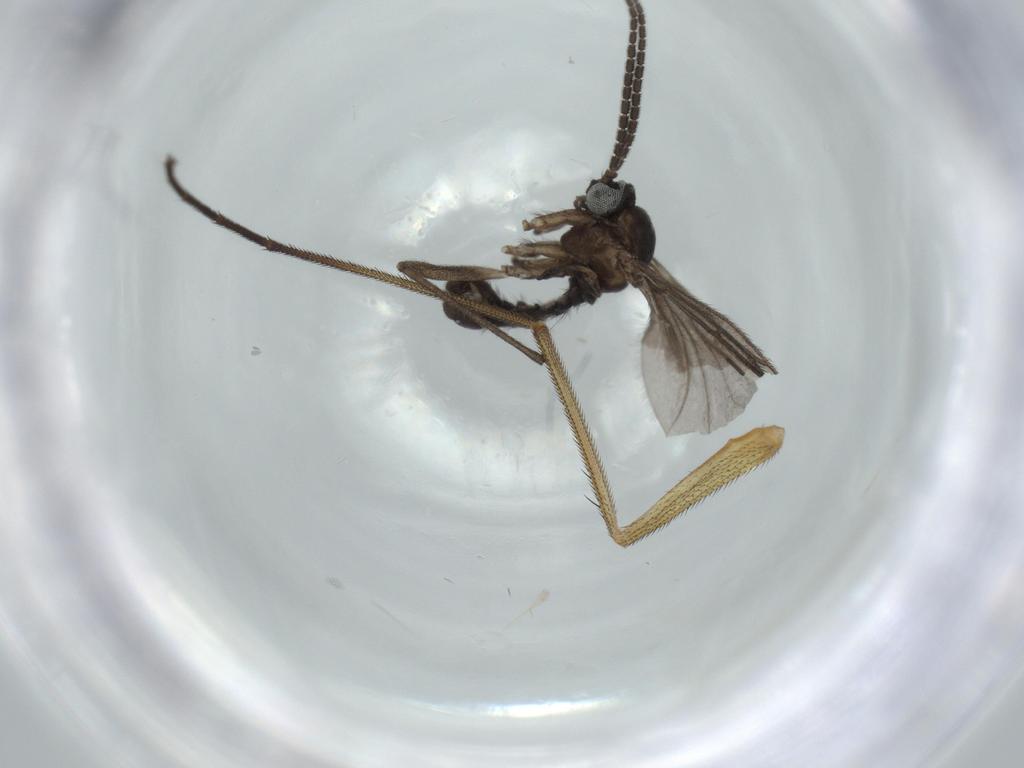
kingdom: Animalia
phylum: Arthropoda
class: Insecta
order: Diptera
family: Sciaridae
